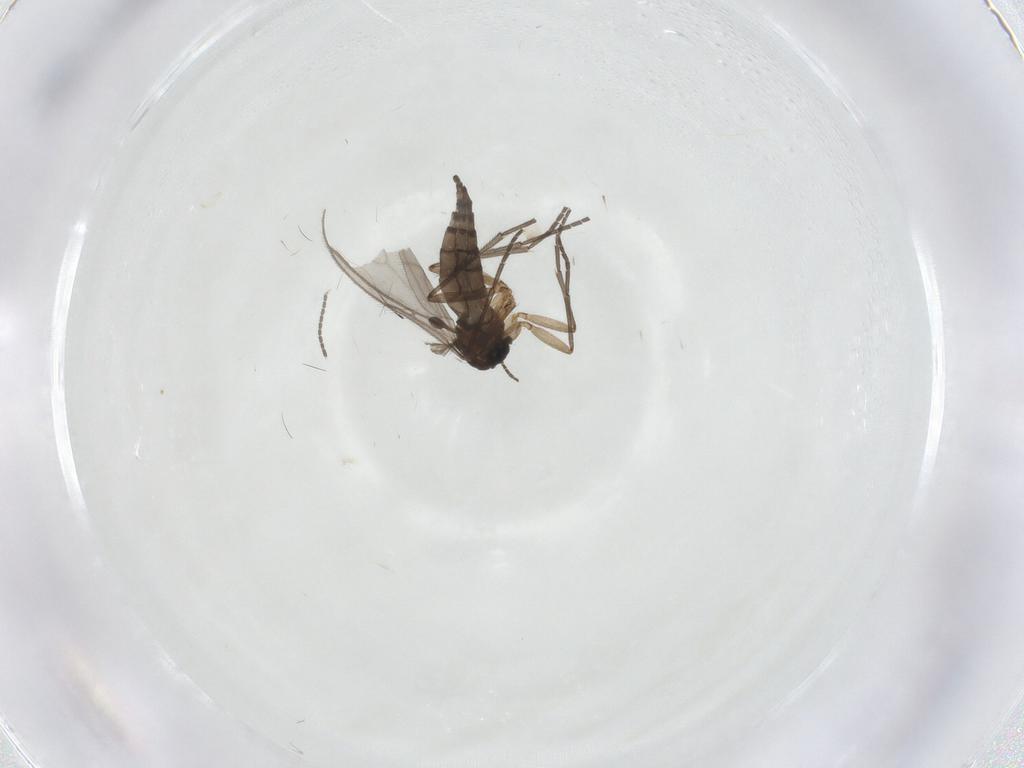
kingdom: Animalia
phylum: Arthropoda
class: Insecta
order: Diptera
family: Sciaridae
